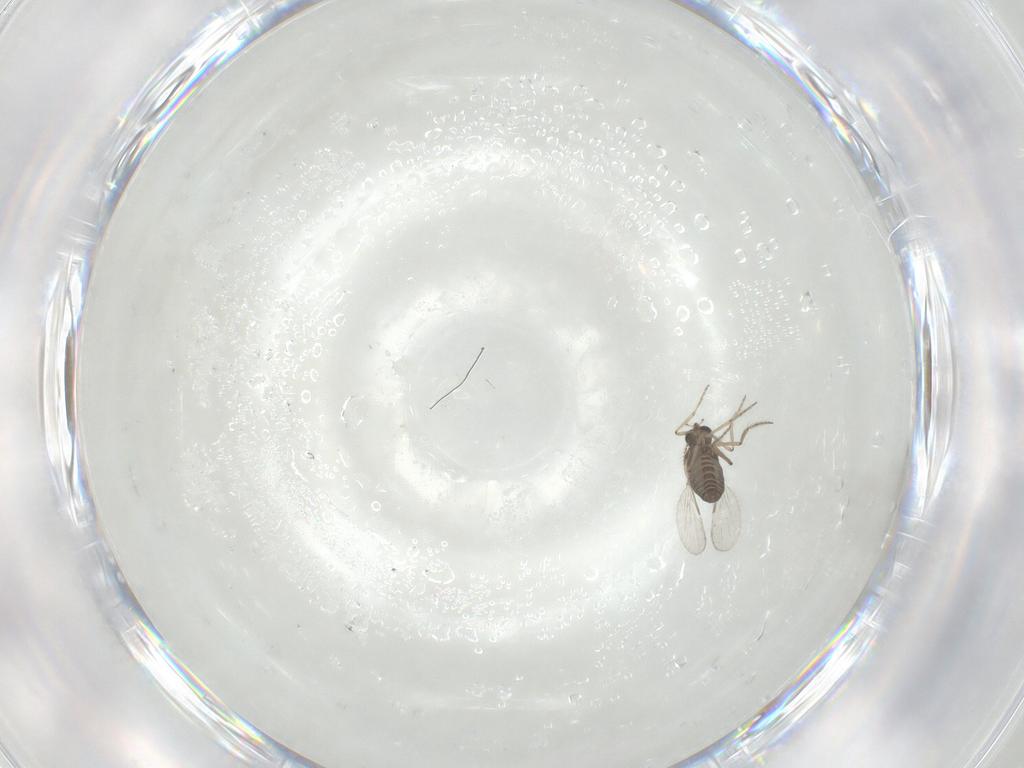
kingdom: Animalia
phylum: Arthropoda
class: Insecta
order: Diptera
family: Ceratopogonidae
